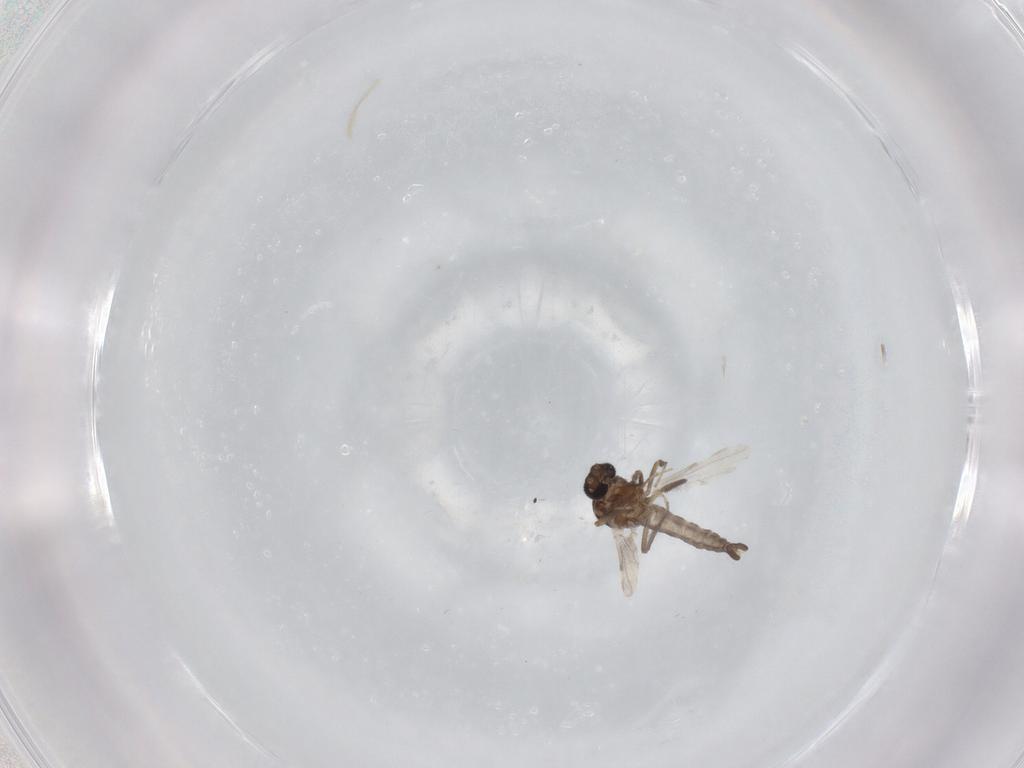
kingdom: Animalia
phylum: Arthropoda
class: Insecta
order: Diptera
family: Ceratopogonidae
